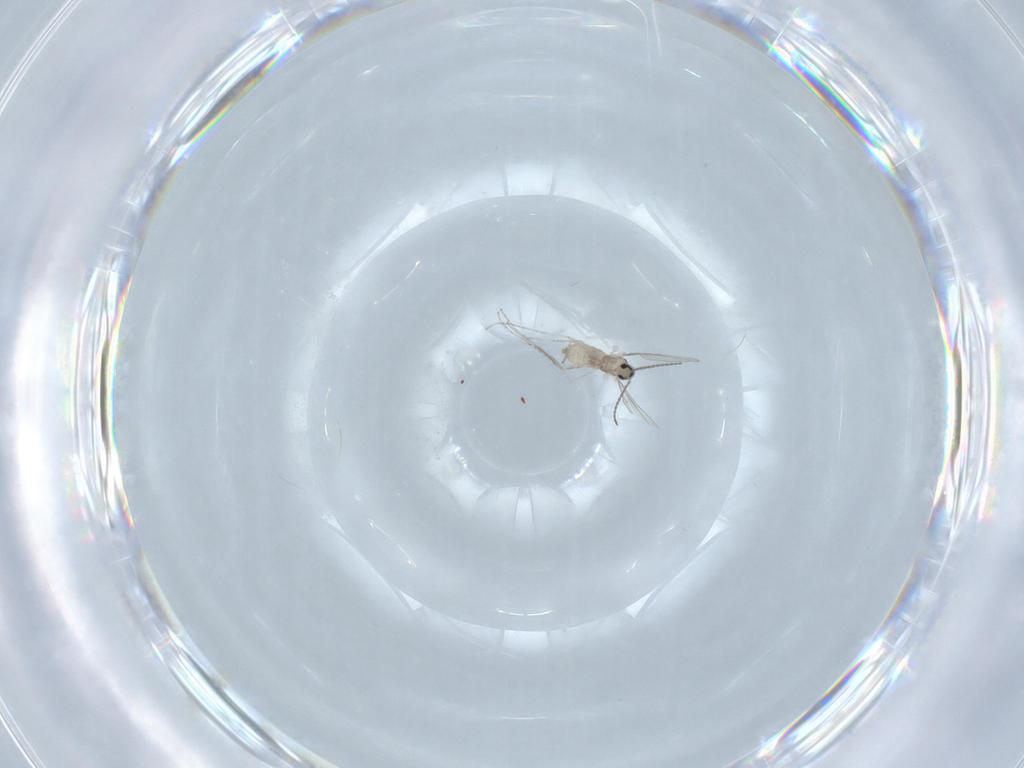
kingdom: Animalia
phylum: Arthropoda
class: Insecta
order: Diptera
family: Cecidomyiidae
